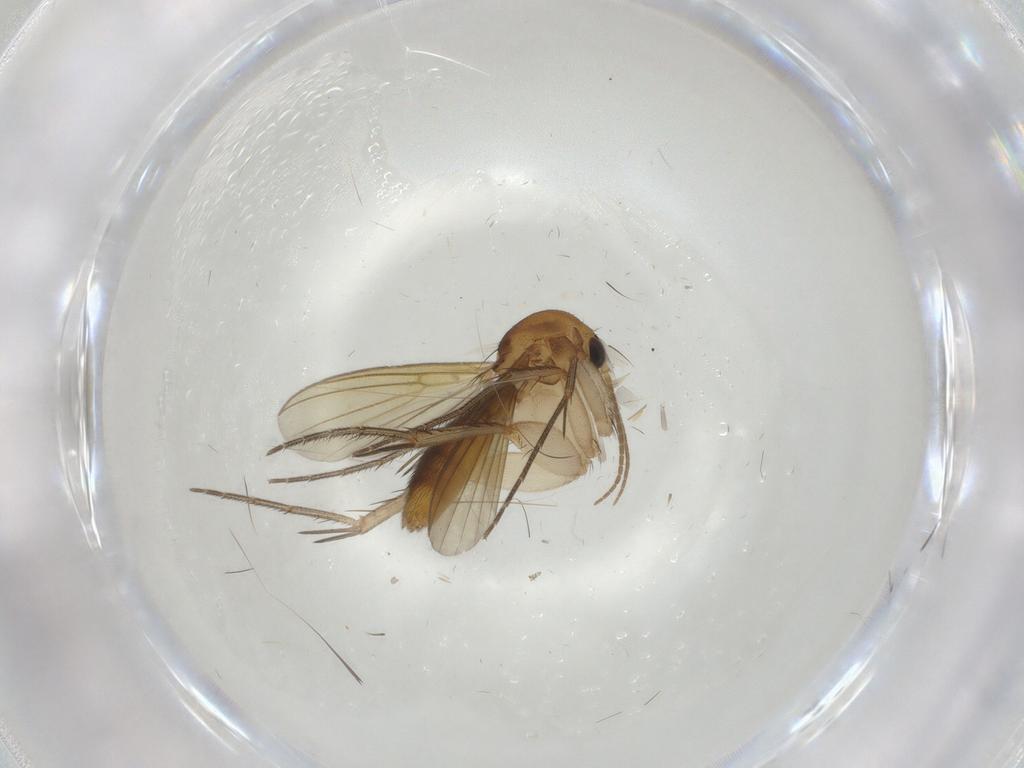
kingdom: Animalia
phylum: Arthropoda
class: Insecta
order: Diptera
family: Mycetophilidae
